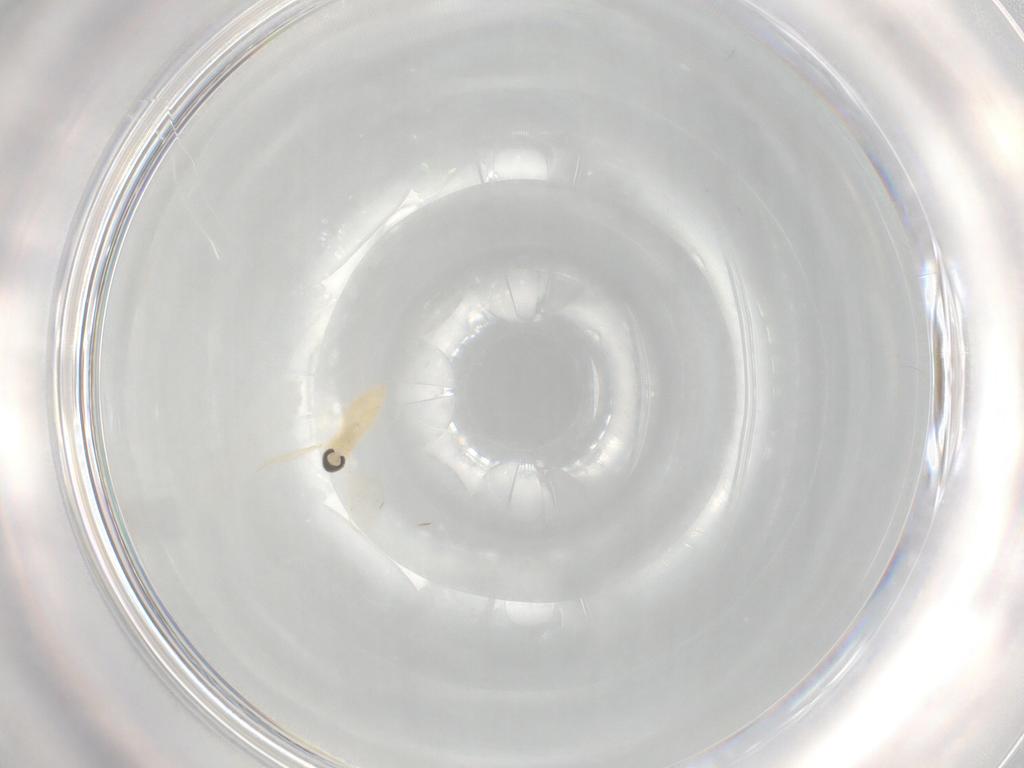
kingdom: Animalia
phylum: Arthropoda
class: Insecta
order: Diptera
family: Cecidomyiidae
